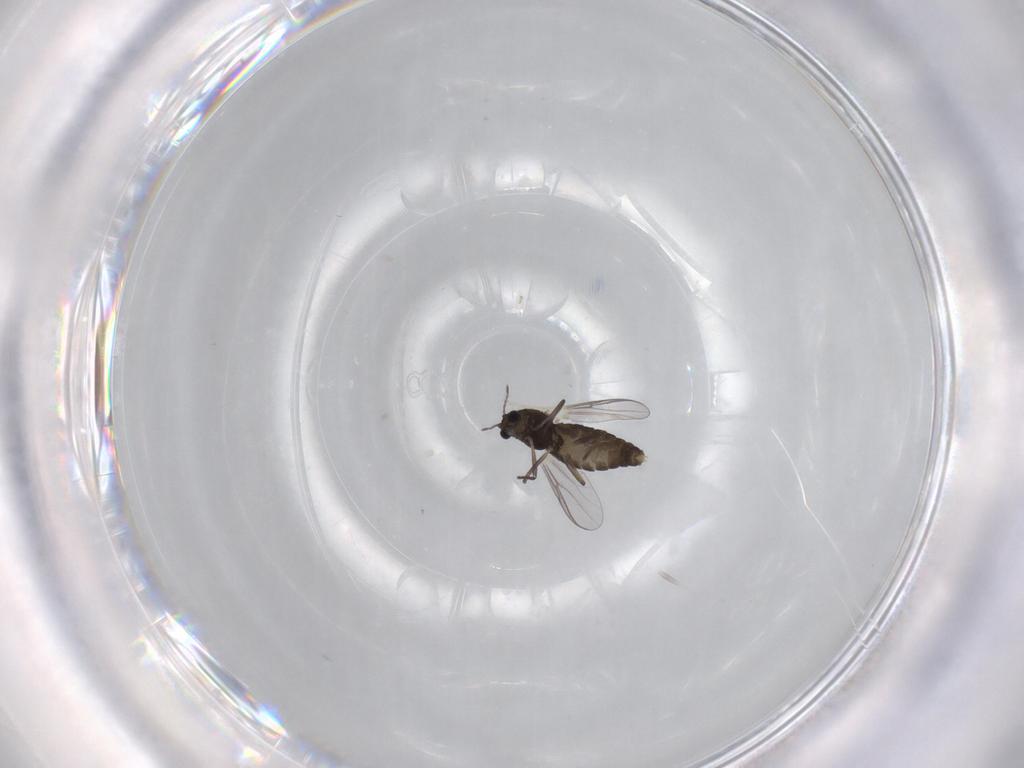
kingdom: Animalia
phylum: Arthropoda
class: Insecta
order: Diptera
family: Chironomidae
